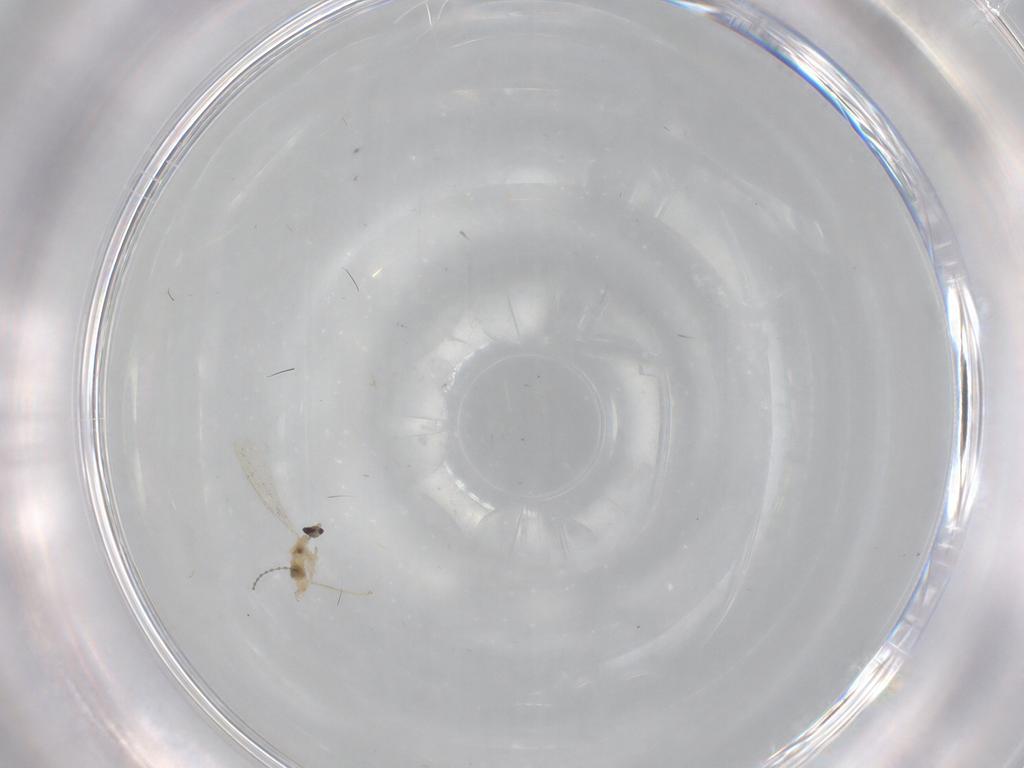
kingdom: Animalia
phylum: Arthropoda
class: Insecta
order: Diptera
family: Cecidomyiidae
